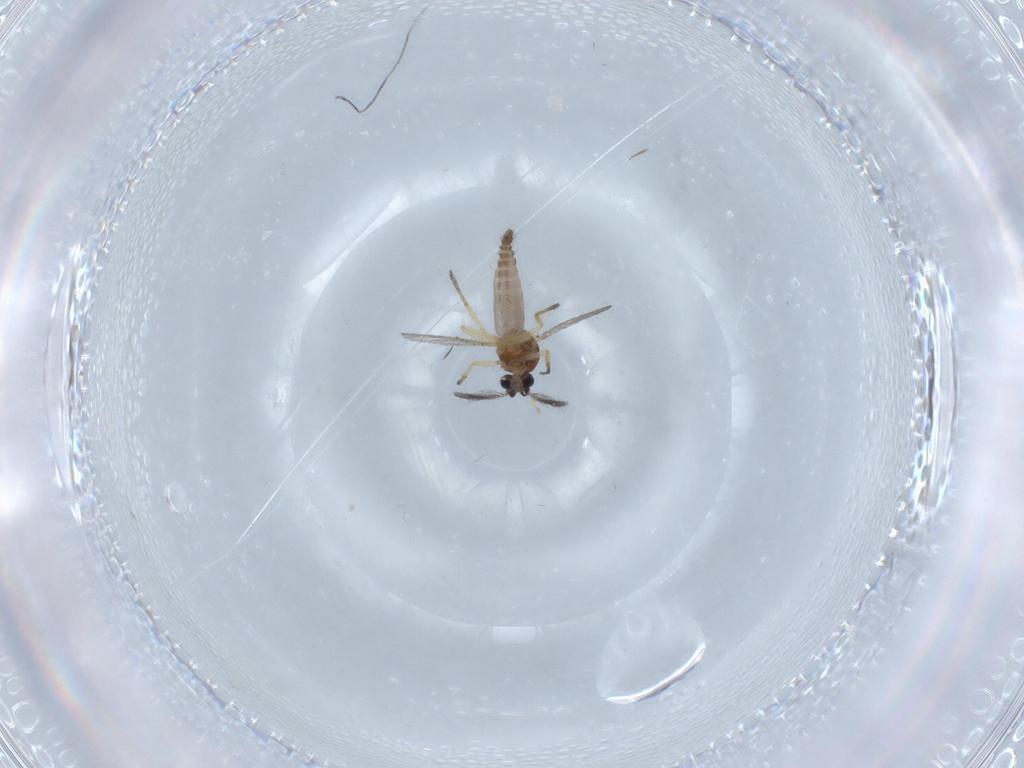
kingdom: Animalia
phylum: Arthropoda
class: Insecta
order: Diptera
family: Ceratopogonidae
